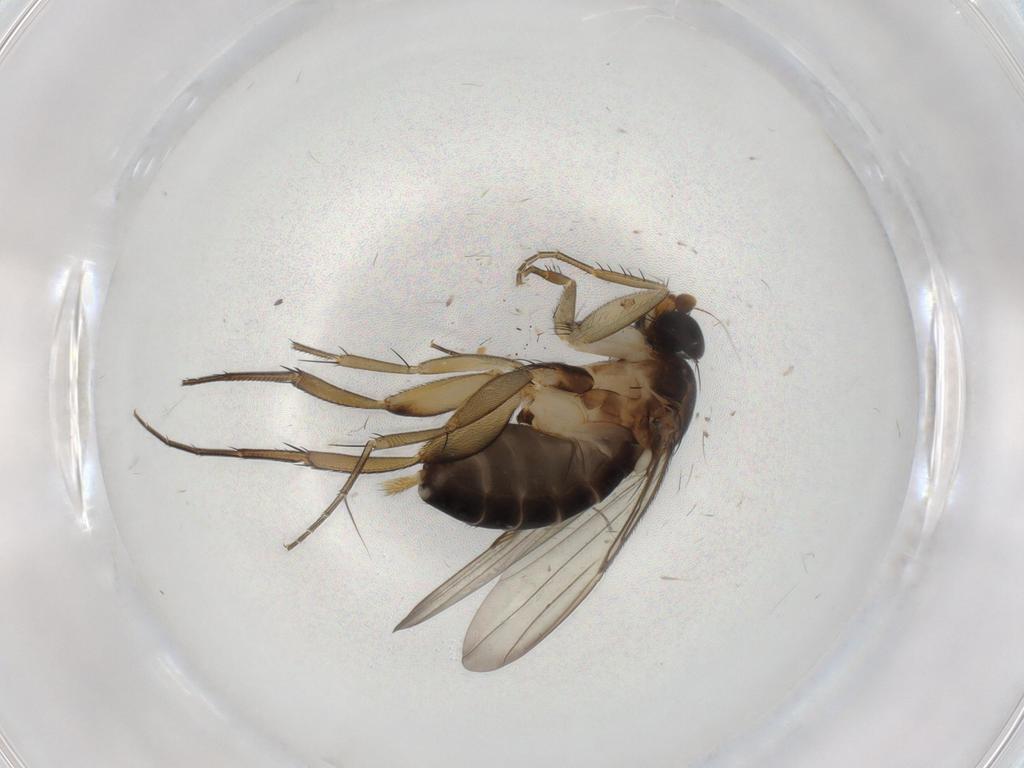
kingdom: Animalia
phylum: Arthropoda
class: Insecta
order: Diptera
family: Phoridae
